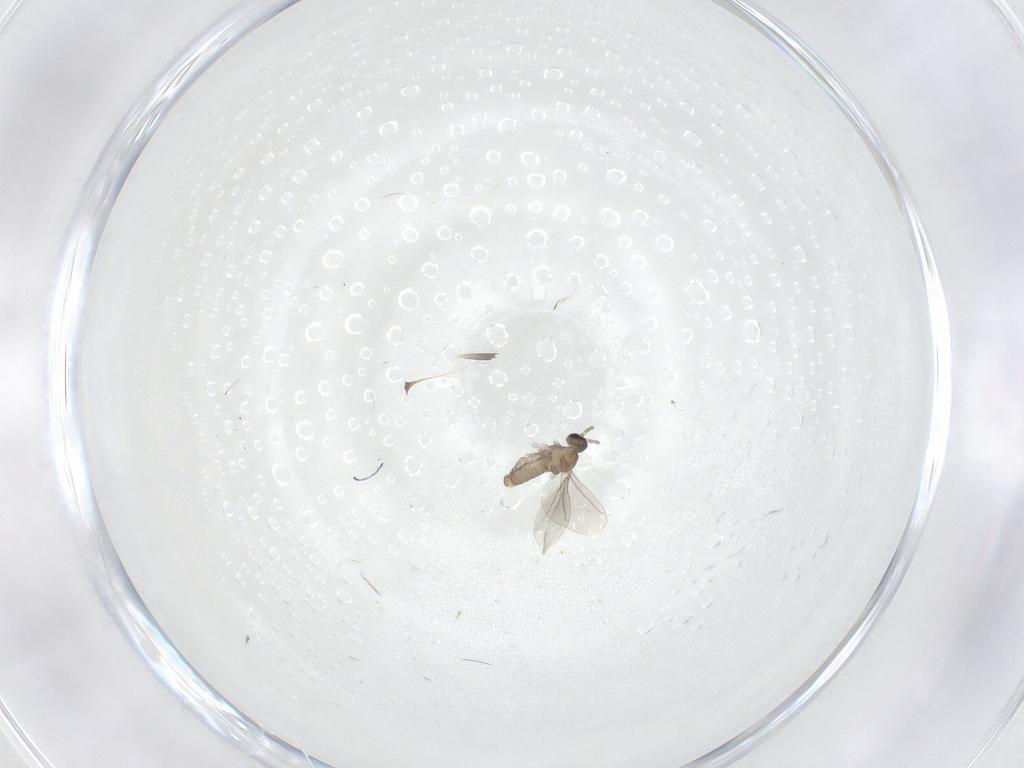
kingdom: Animalia
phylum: Arthropoda
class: Insecta
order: Diptera
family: Cecidomyiidae
